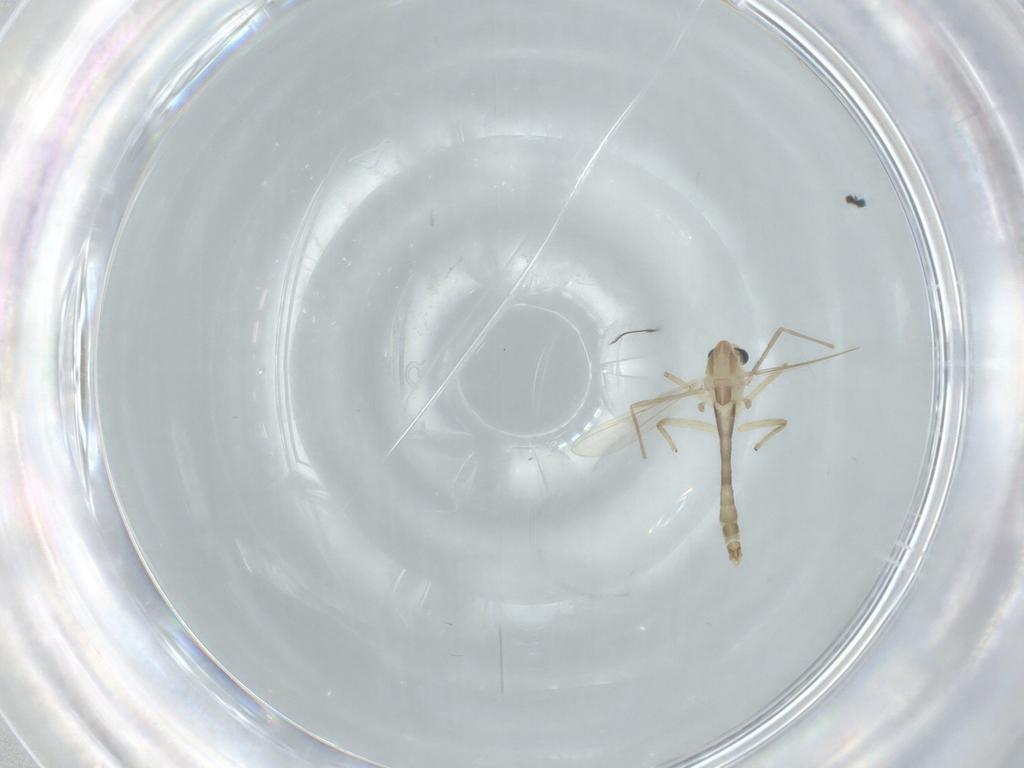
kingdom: Animalia
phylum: Arthropoda
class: Insecta
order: Diptera
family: Chironomidae
